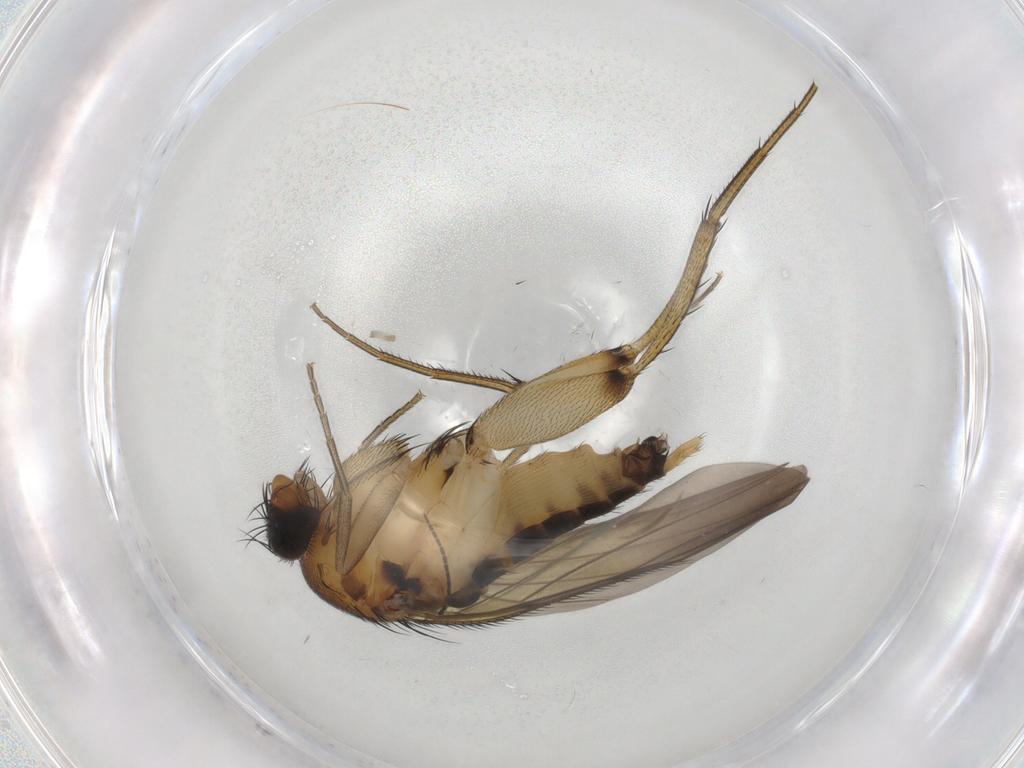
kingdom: Animalia
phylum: Arthropoda
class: Insecta
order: Diptera
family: Phoridae
